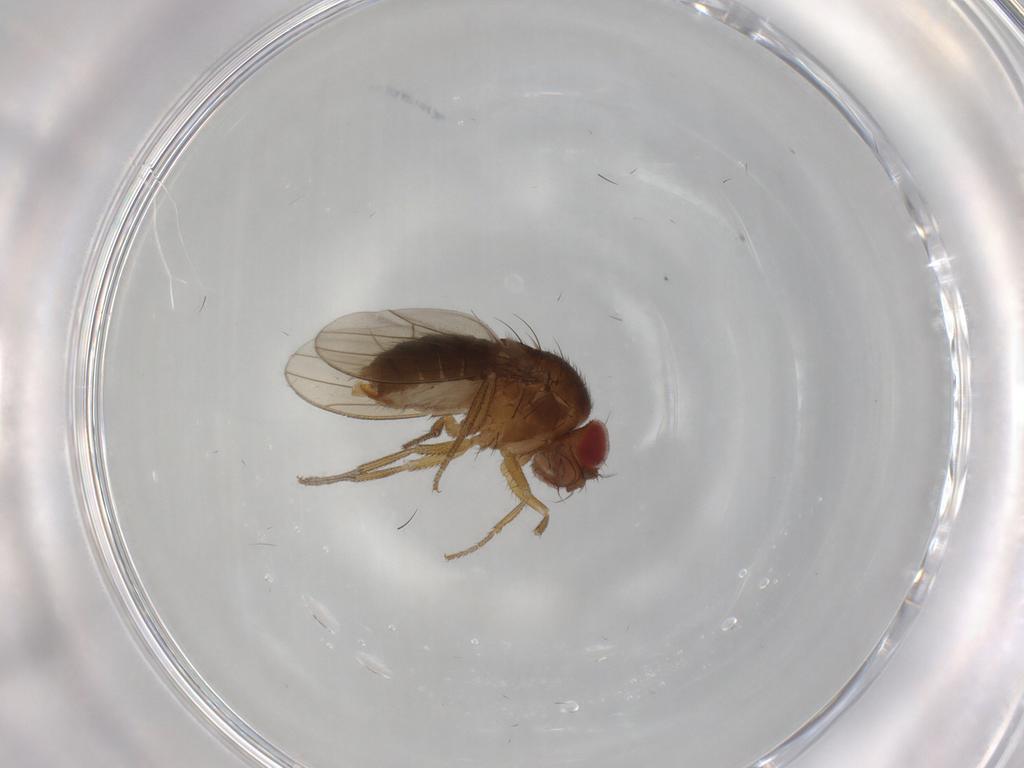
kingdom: Animalia
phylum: Arthropoda
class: Insecta
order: Diptera
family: Drosophilidae
